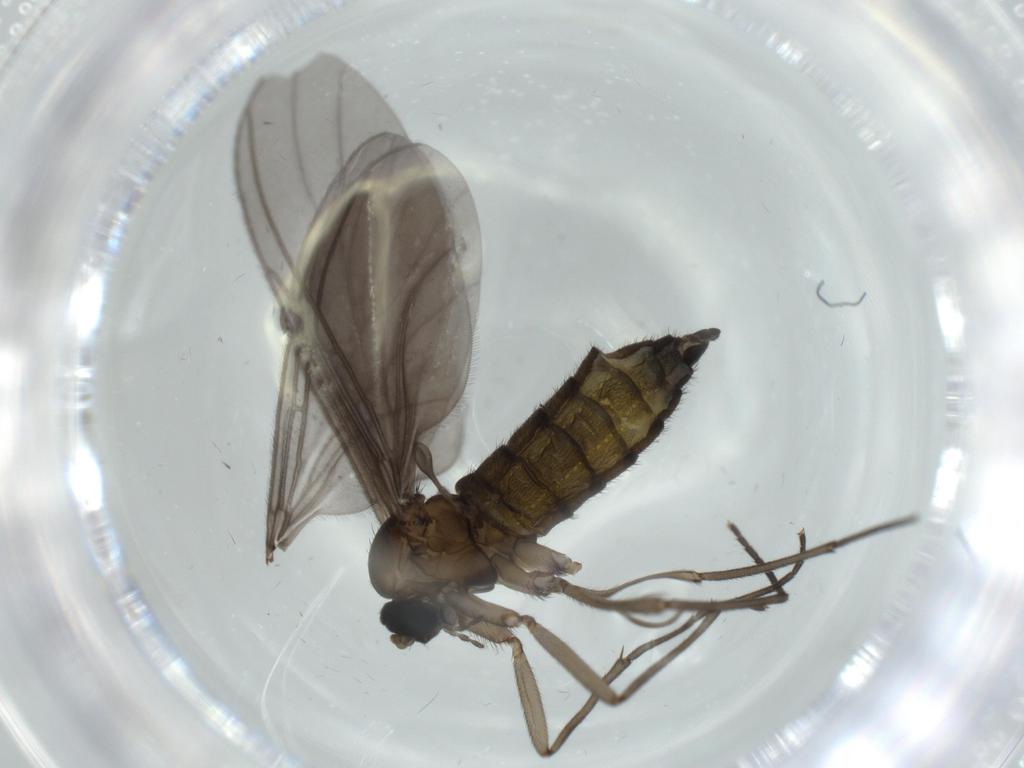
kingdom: Animalia
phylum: Arthropoda
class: Insecta
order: Diptera
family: Sciaridae
